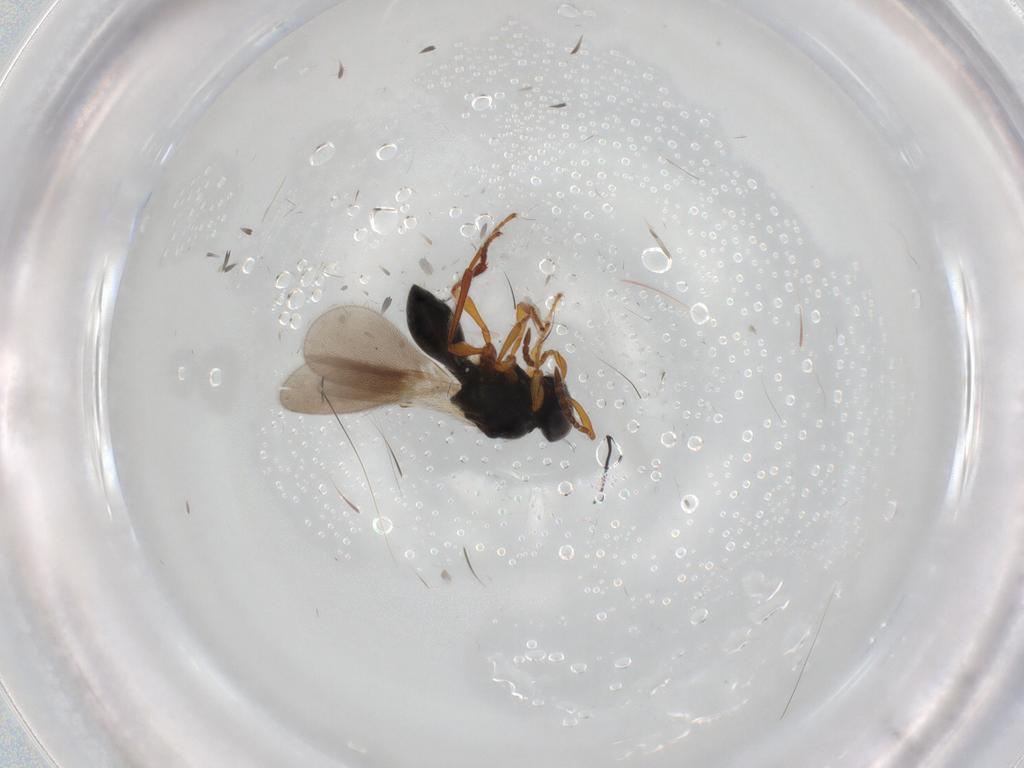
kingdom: Animalia
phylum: Arthropoda
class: Insecta
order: Hymenoptera
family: Platygastridae
